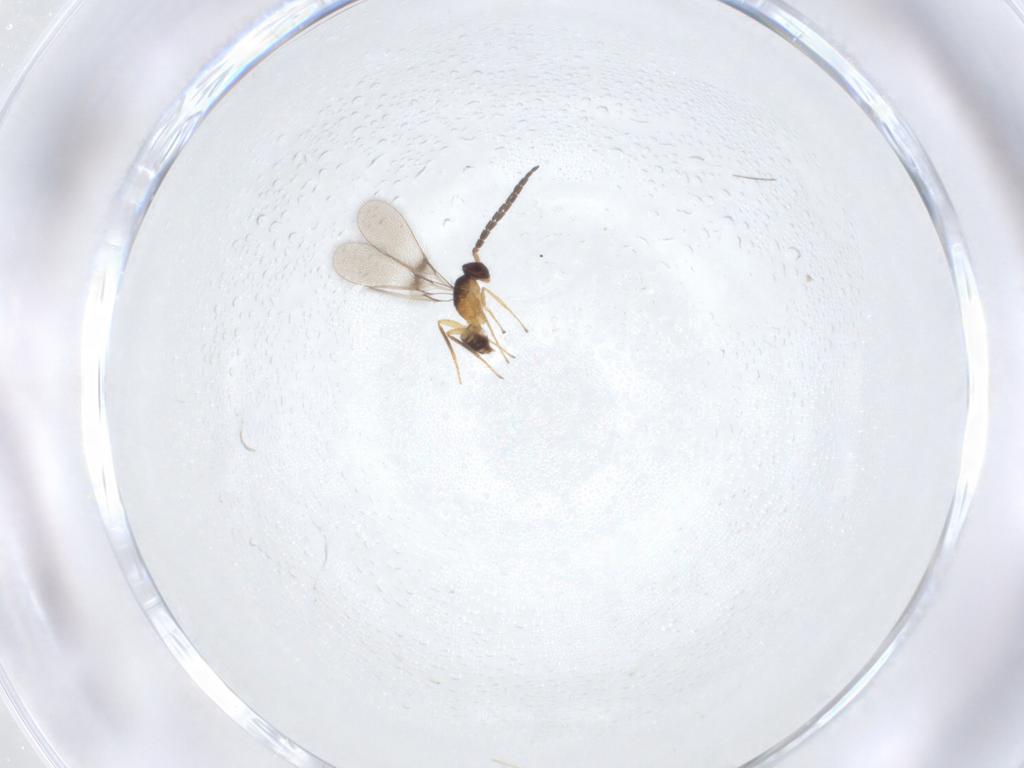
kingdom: Animalia
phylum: Arthropoda
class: Insecta
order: Hymenoptera
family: Mymaridae
